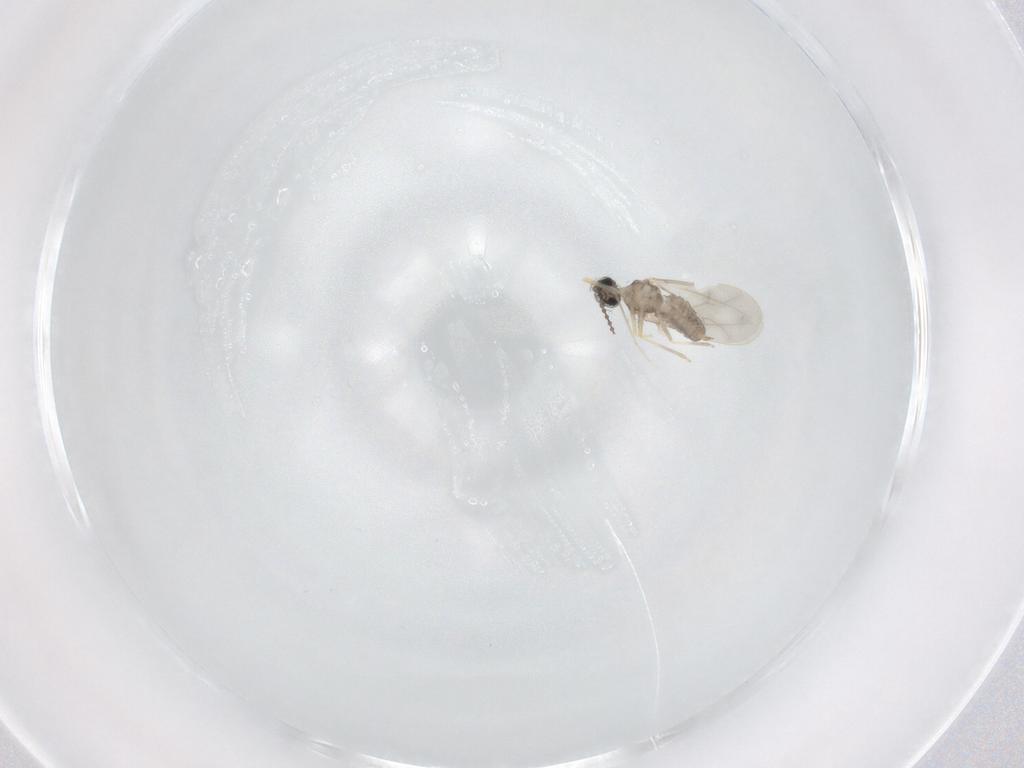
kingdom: Animalia
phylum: Arthropoda
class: Insecta
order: Diptera
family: Cecidomyiidae
